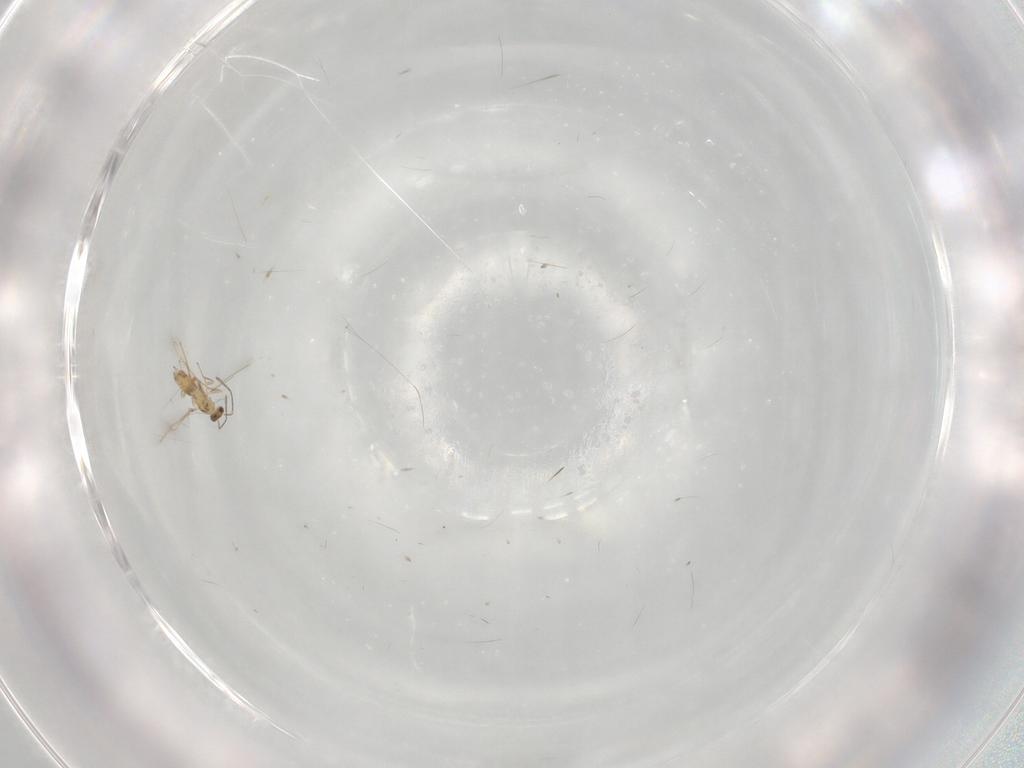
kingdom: Animalia
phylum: Arthropoda
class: Insecta
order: Hymenoptera
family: Mymaridae
